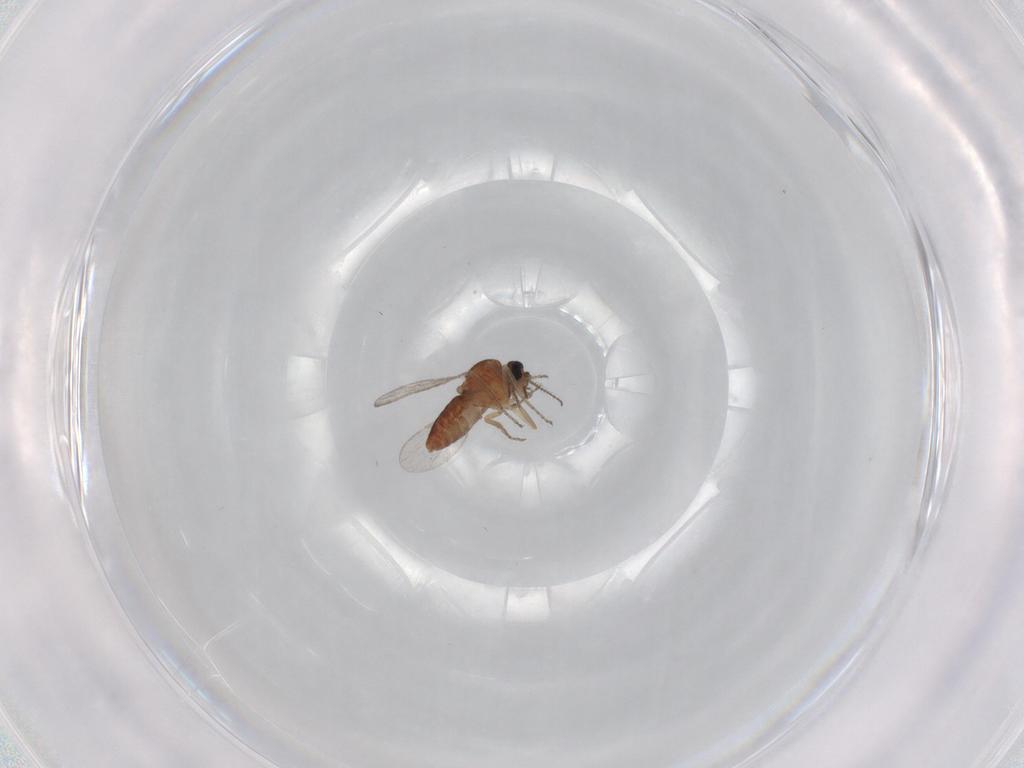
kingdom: Animalia
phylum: Arthropoda
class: Insecta
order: Diptera
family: Ceratopogonidae
